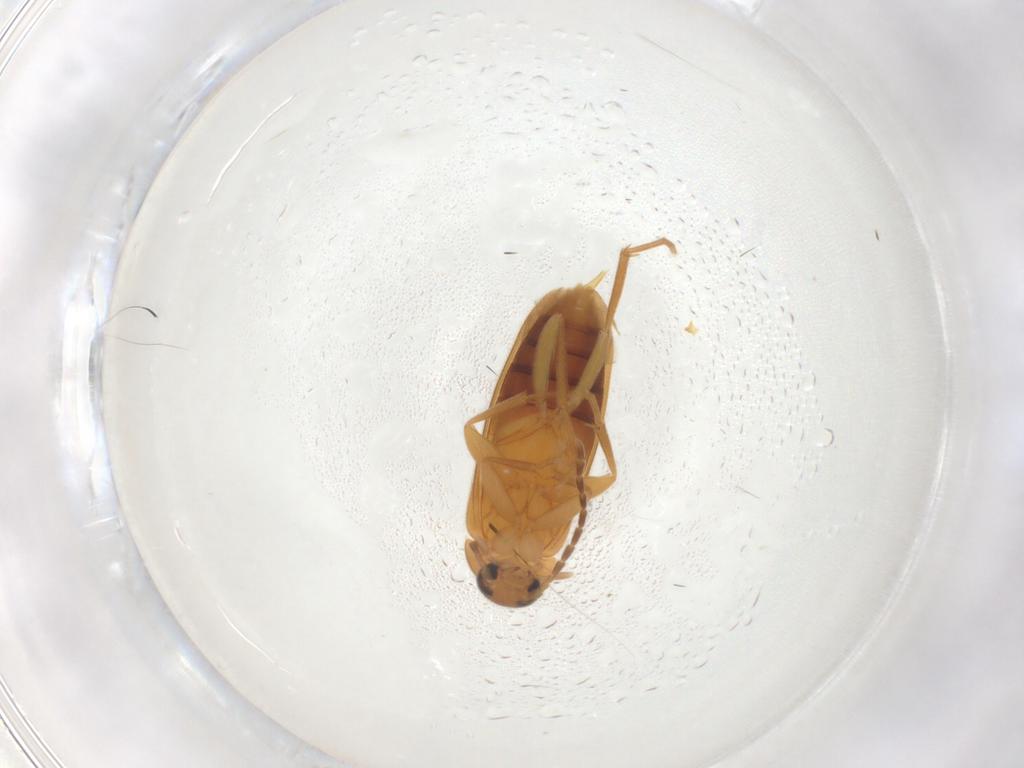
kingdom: Animalia
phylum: Arthropoda
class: Insecta
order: Coleoptera
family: Scraptiidae
